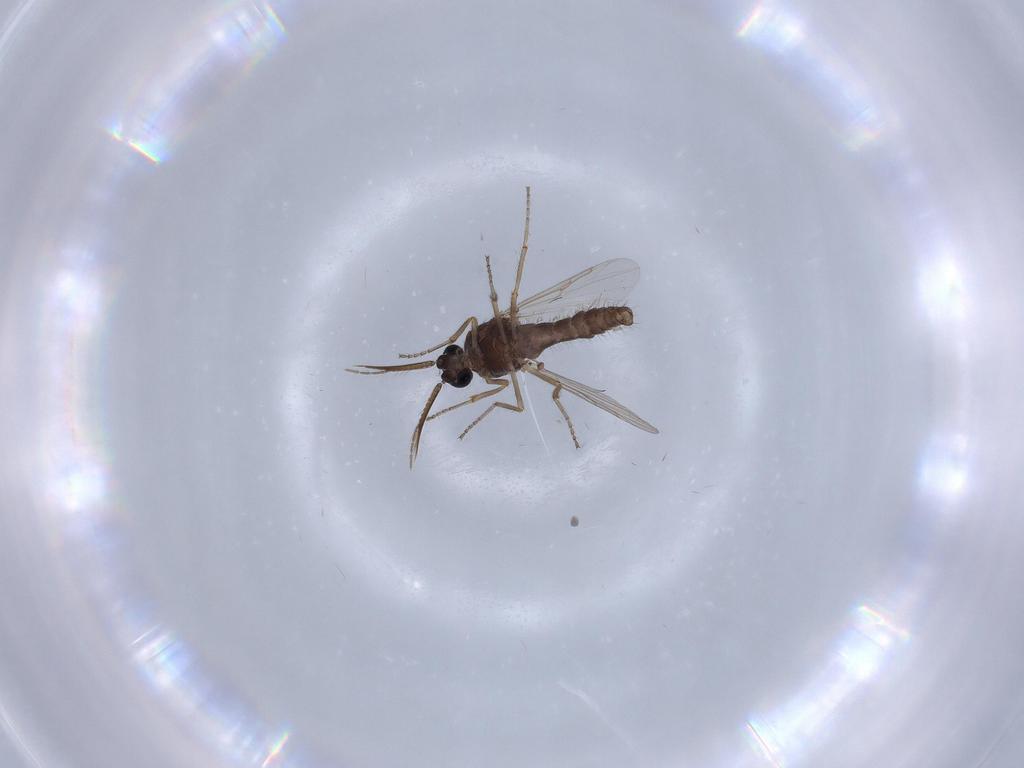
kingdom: Animalia
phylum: Arthropoda
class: Insecta
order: Diptera
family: Ceratopogonidae
